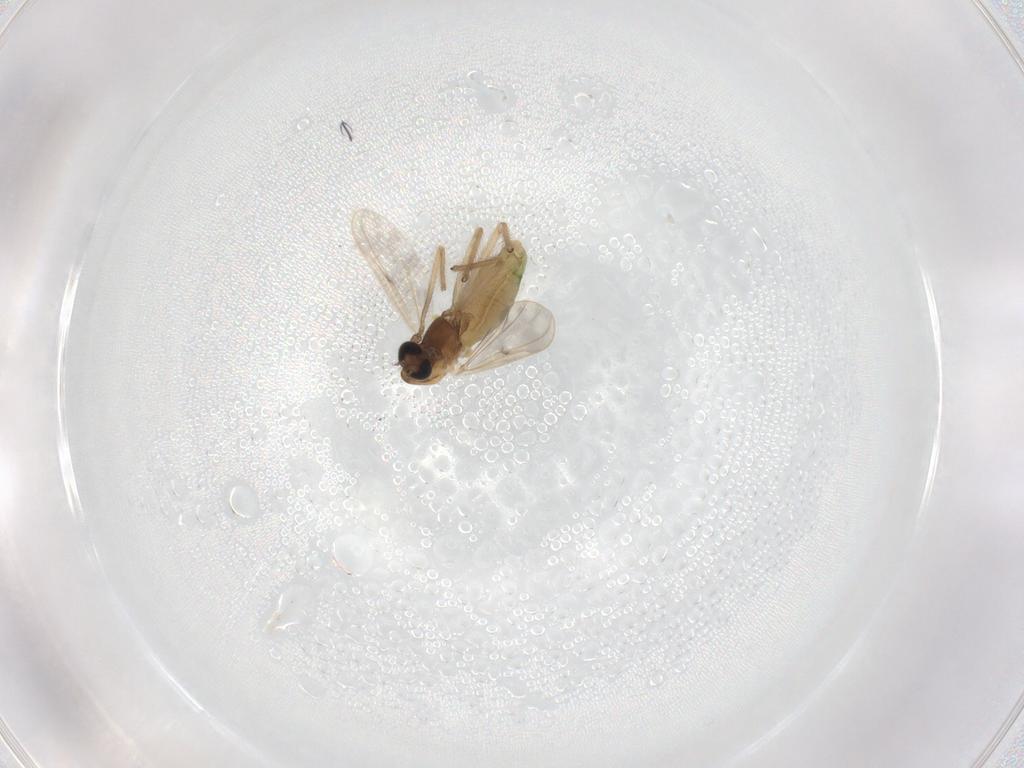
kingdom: Animalia
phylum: Arthropoda
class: Insecta
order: Diptera
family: Chironomidae
